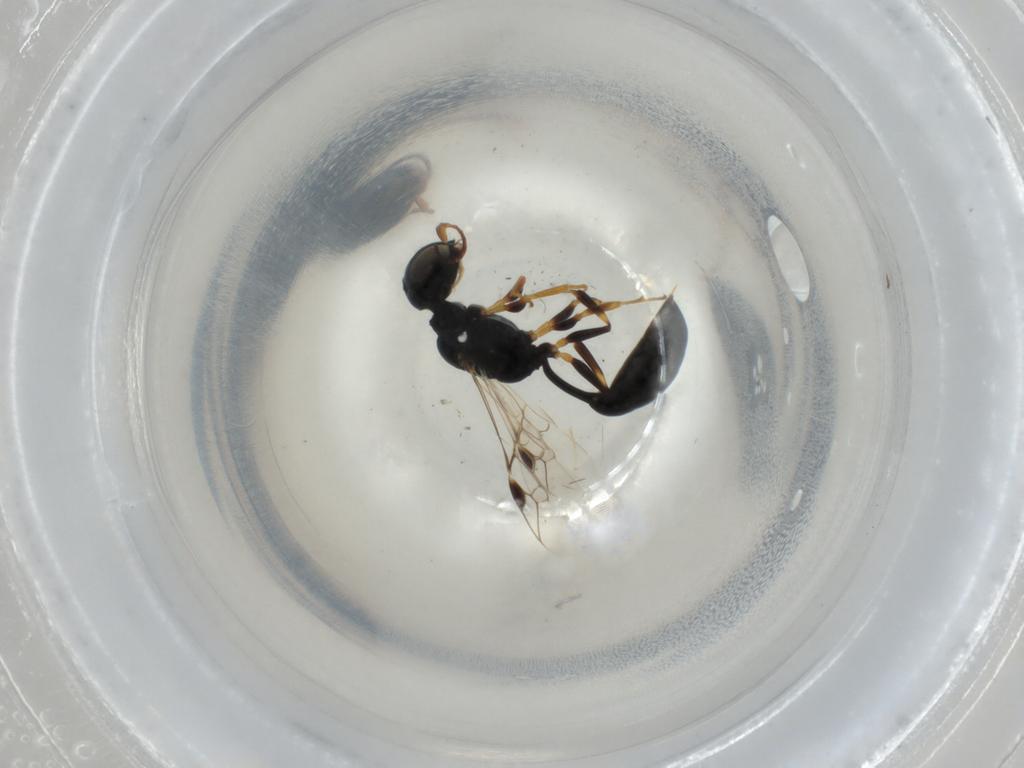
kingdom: Animalia
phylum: Arthropoda
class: Insecta
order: Hymenoptera
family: Pemphredonidae
